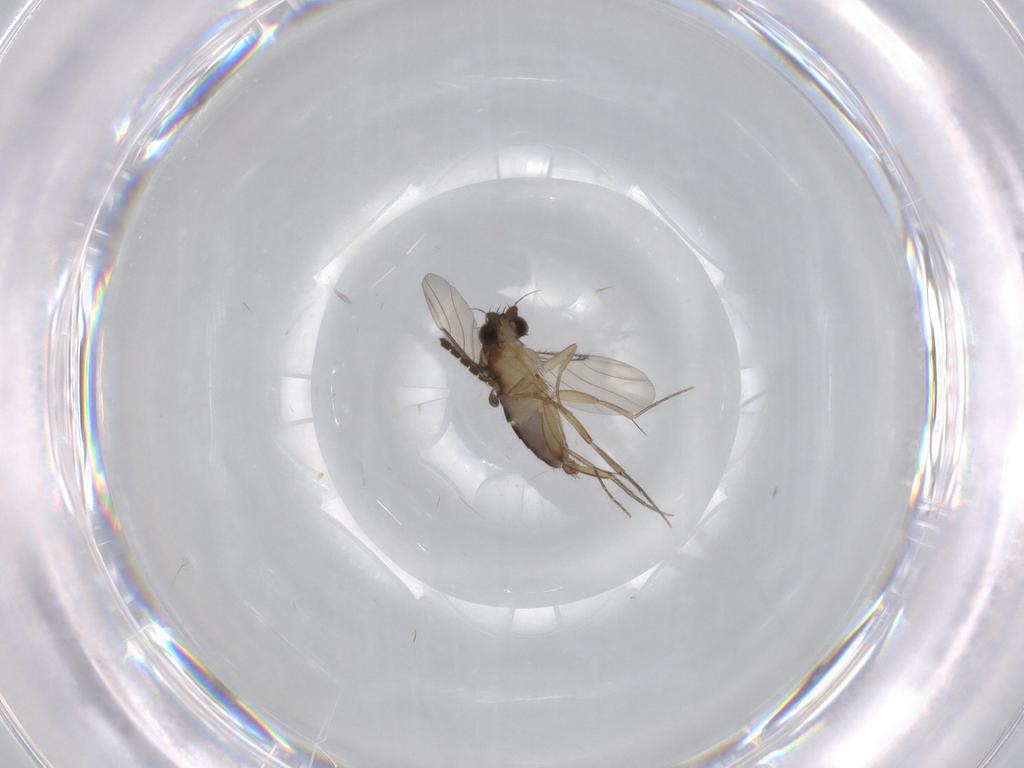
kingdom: Animalia
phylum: Arthropoda
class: Insecta
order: Diptera
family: Phoridae
